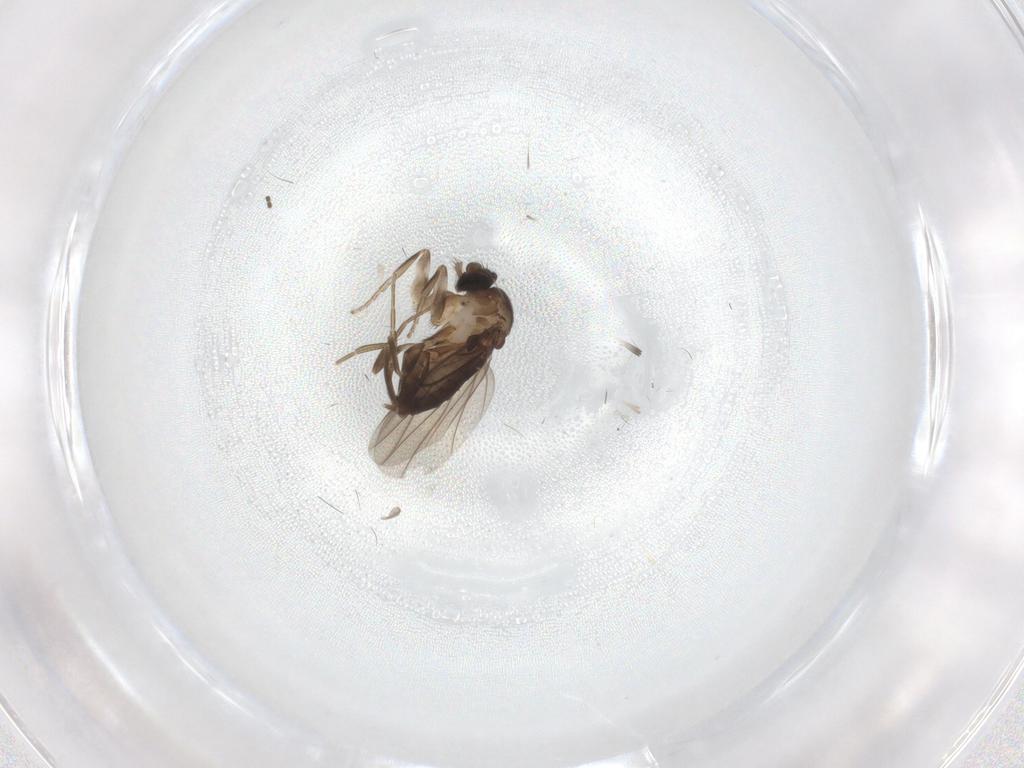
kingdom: Animalia
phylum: Arthropoda
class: Insecta
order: Diptera
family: Phoridae
